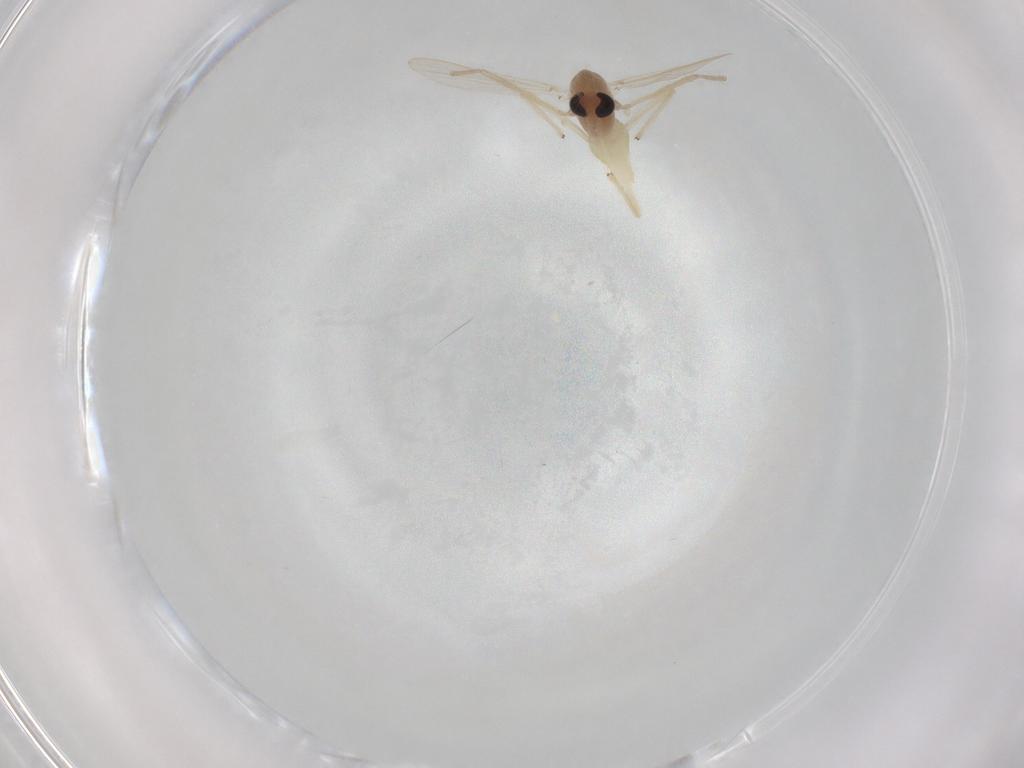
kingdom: Animalia
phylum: Arthropoda
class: Insecta
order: Diptera
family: Chironomidae
